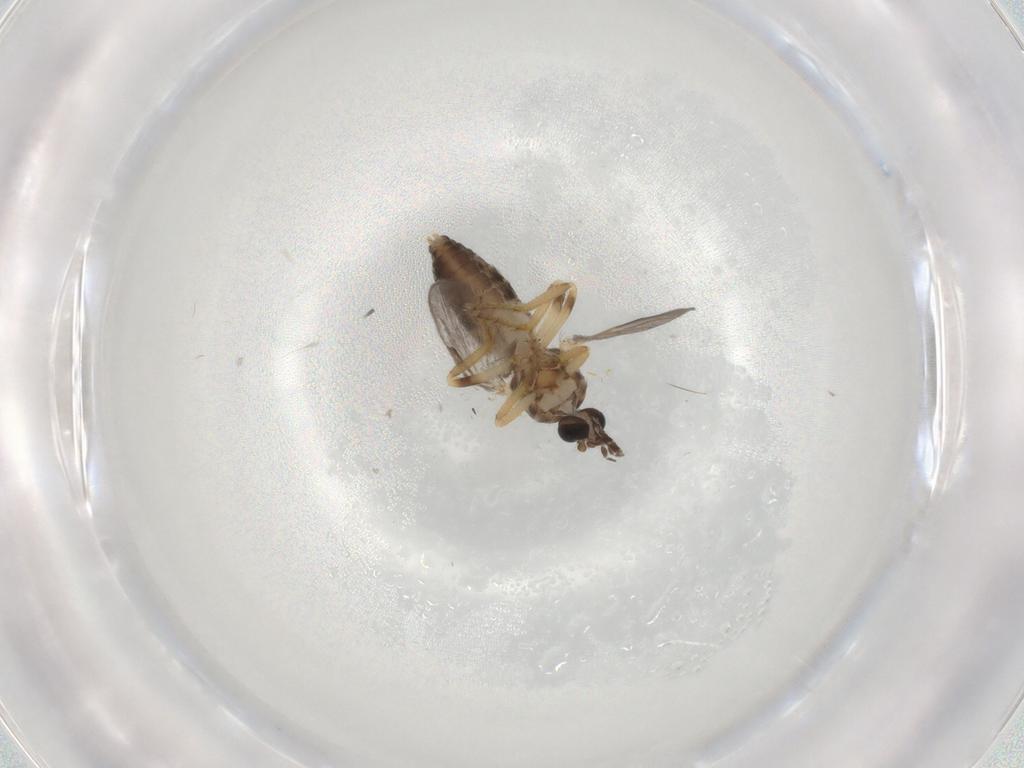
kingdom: Animalia
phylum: Arthropoda
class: Insecta
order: Diptera
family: Ceratopogonidae
